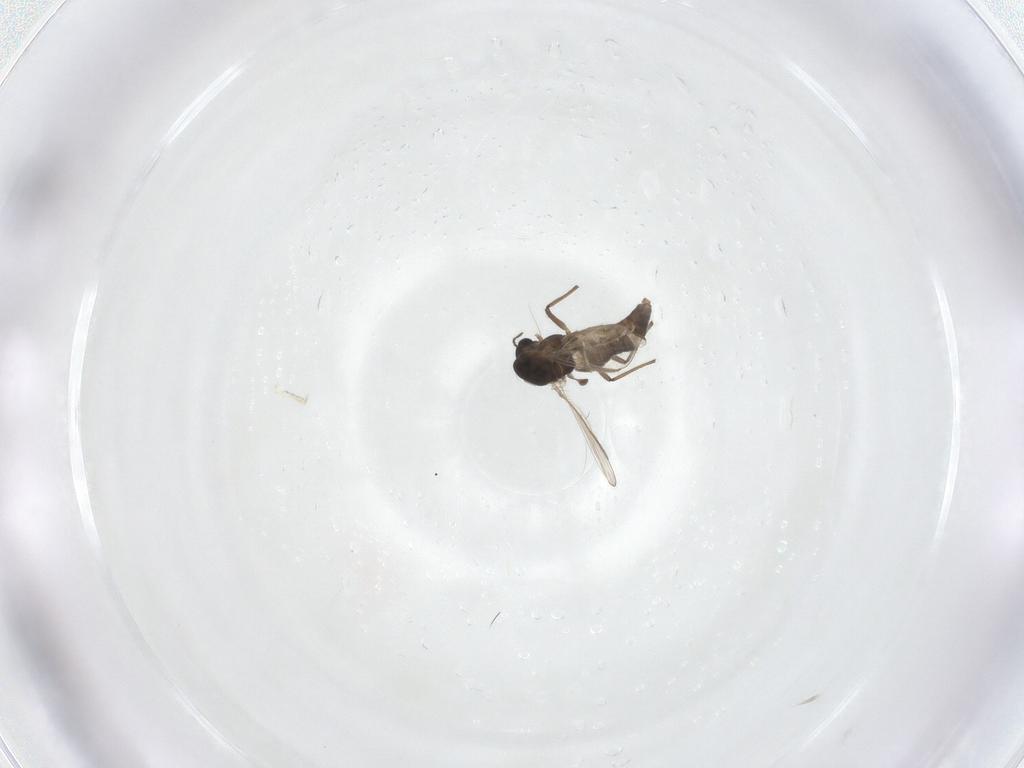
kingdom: Animalia
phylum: Arthropoda
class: Insecta
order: Diptera
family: Chironomidae
